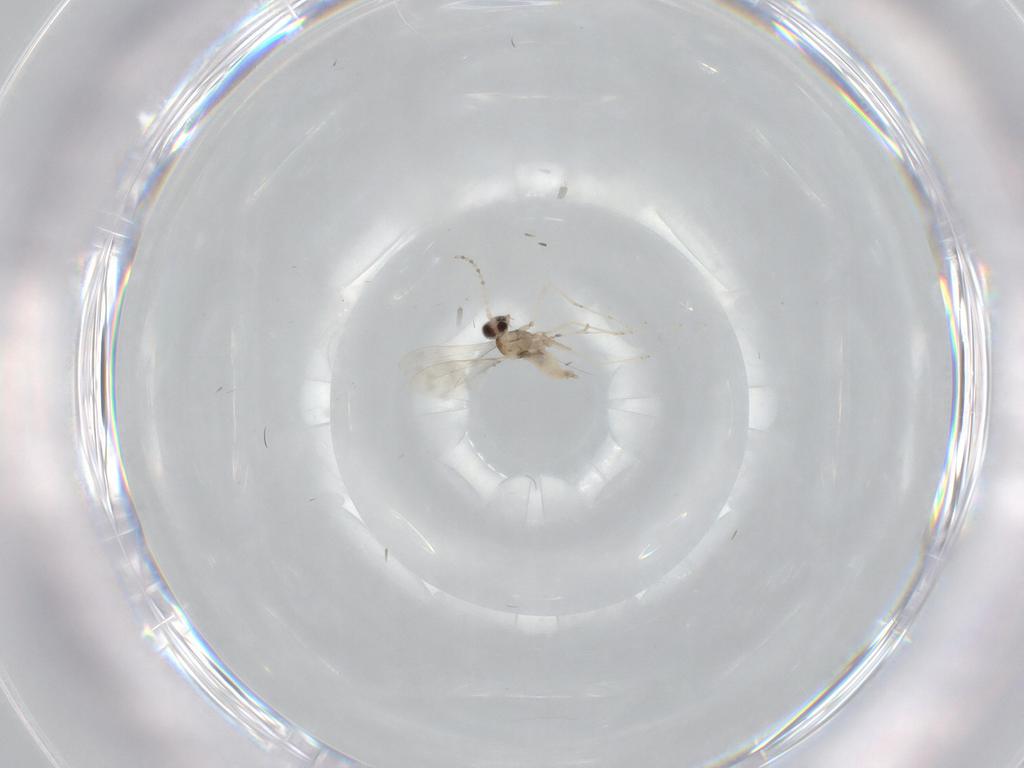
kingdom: Animalia
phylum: Arthropoda
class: Insecta
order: Diptera
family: Cecidomyiidae
